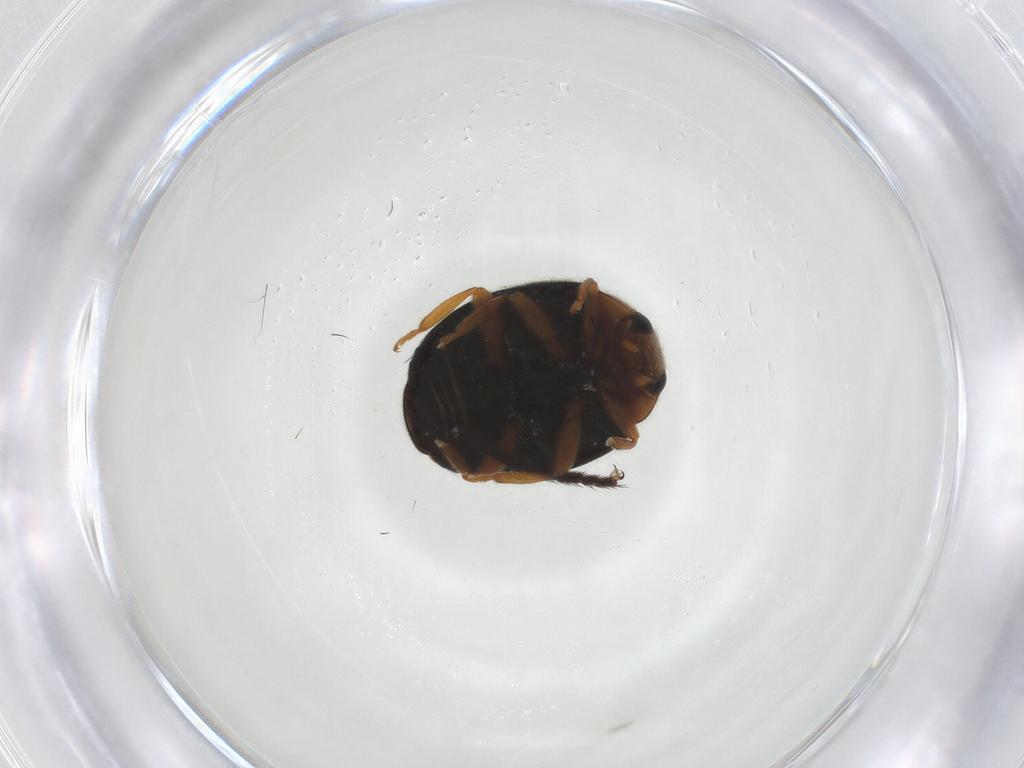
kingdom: Animalia
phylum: Arthropoda
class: Insecta
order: Coleoptera
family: Coccinellidae
